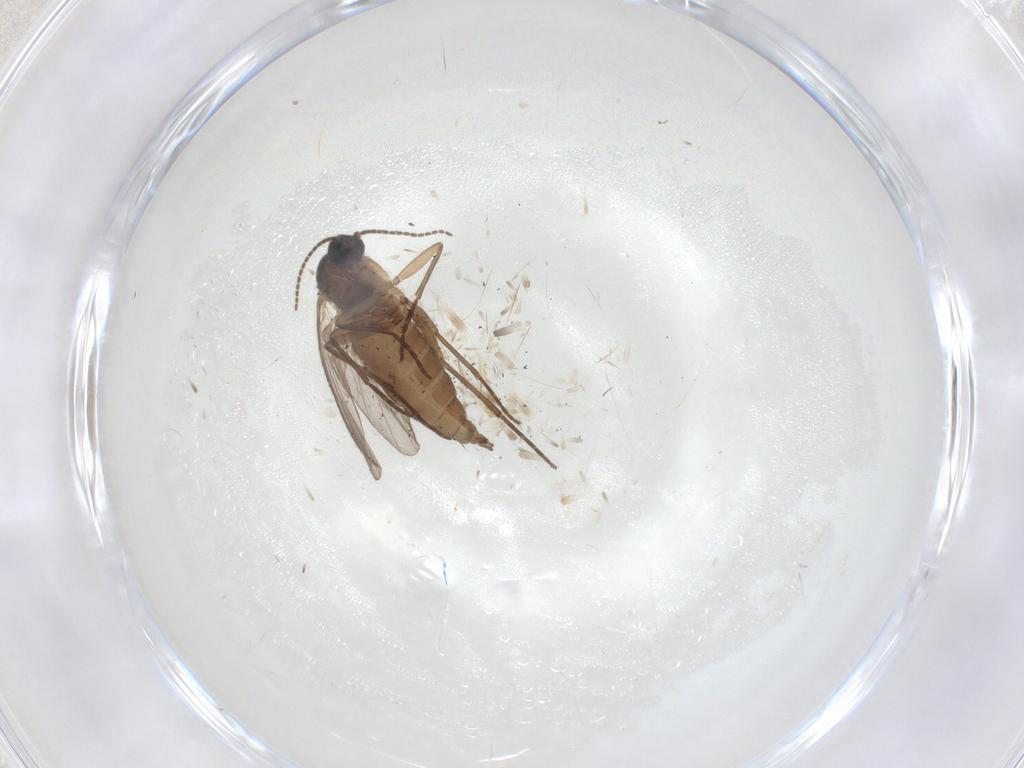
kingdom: Animalia
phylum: Arthropoda
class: Insecta
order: Diptera
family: Sciaridae
